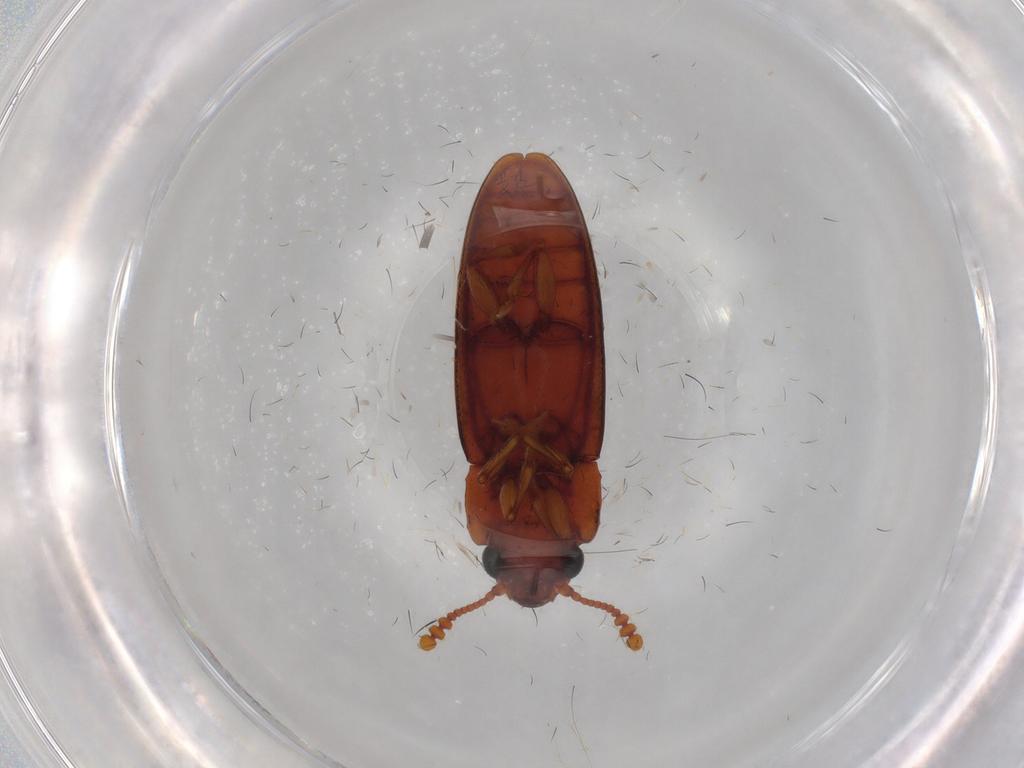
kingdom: Animalia
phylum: Arthropoda
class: Insecta
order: Coleoptera
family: Erotylidae
